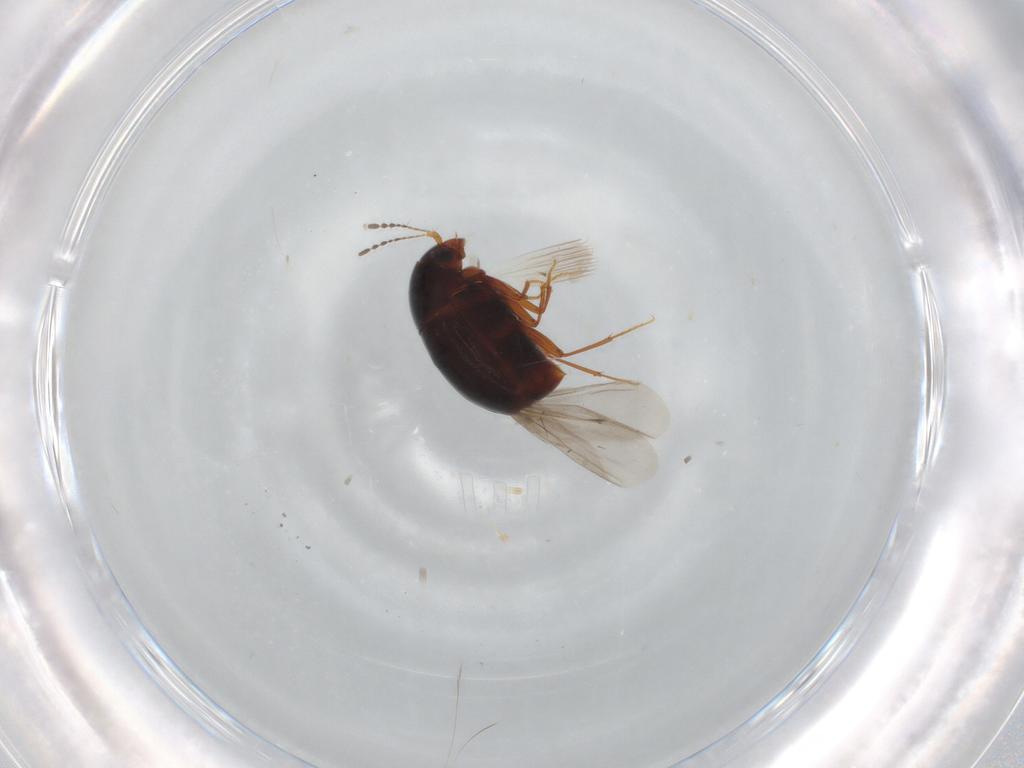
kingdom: Animalia
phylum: Arthropoda
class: Insecta
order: Coleoptera
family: Staphylinidae
